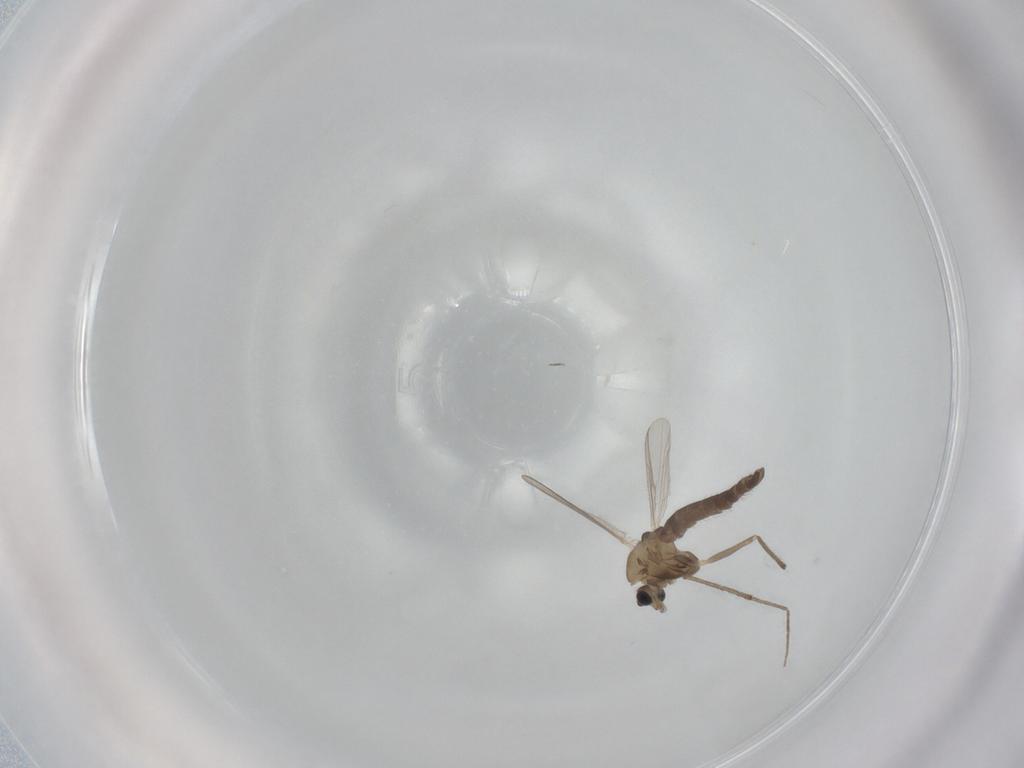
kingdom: Animalia
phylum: Arthropoda
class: Insecta
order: Diptera
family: Chironomidae
